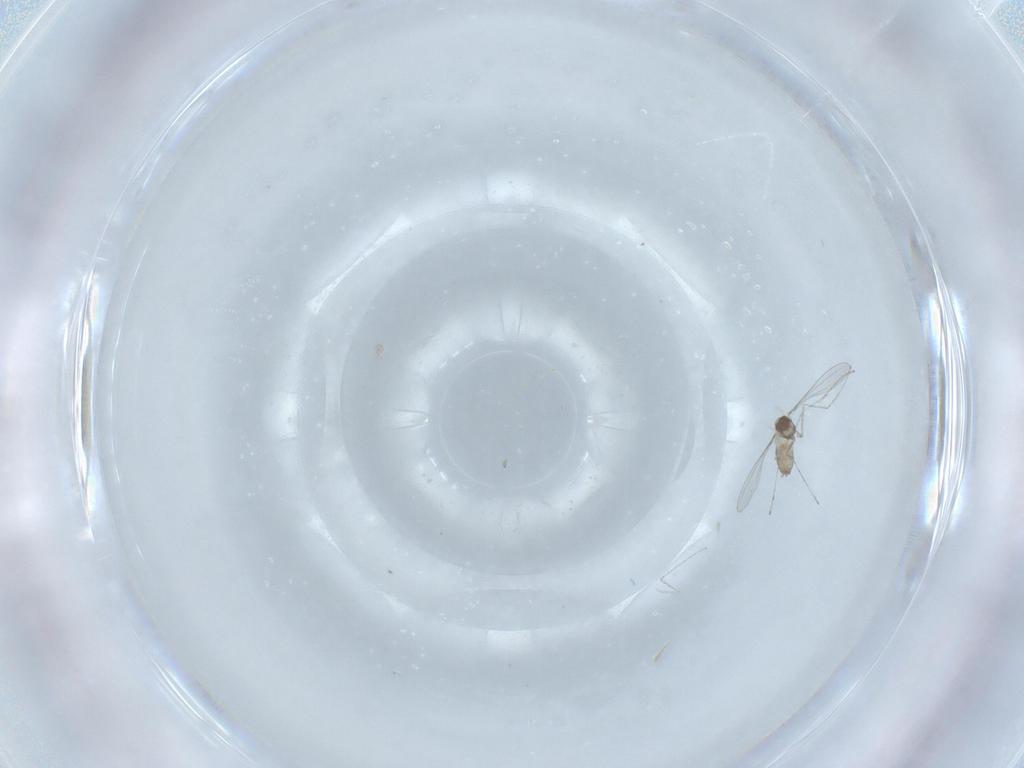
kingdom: Animalia
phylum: Arthropoda
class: Insecta
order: Diptera
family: Cecidomyiidae
